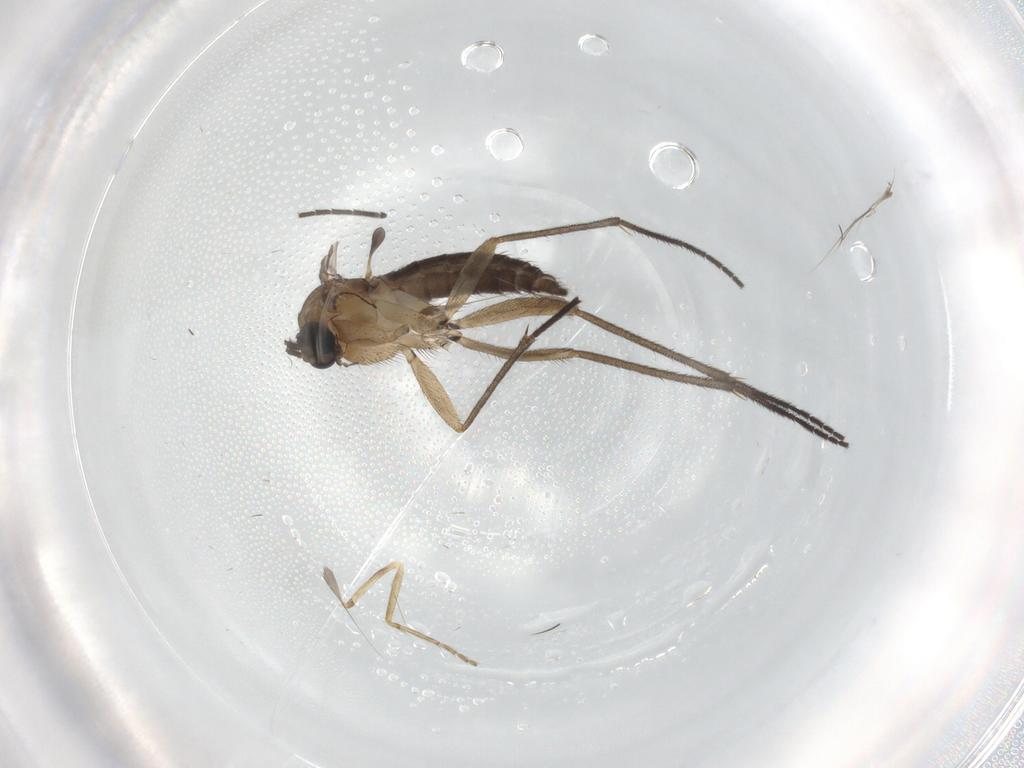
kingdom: Animalia
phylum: Arthropoda
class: Insecta
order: Diptera
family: Sciaridae
